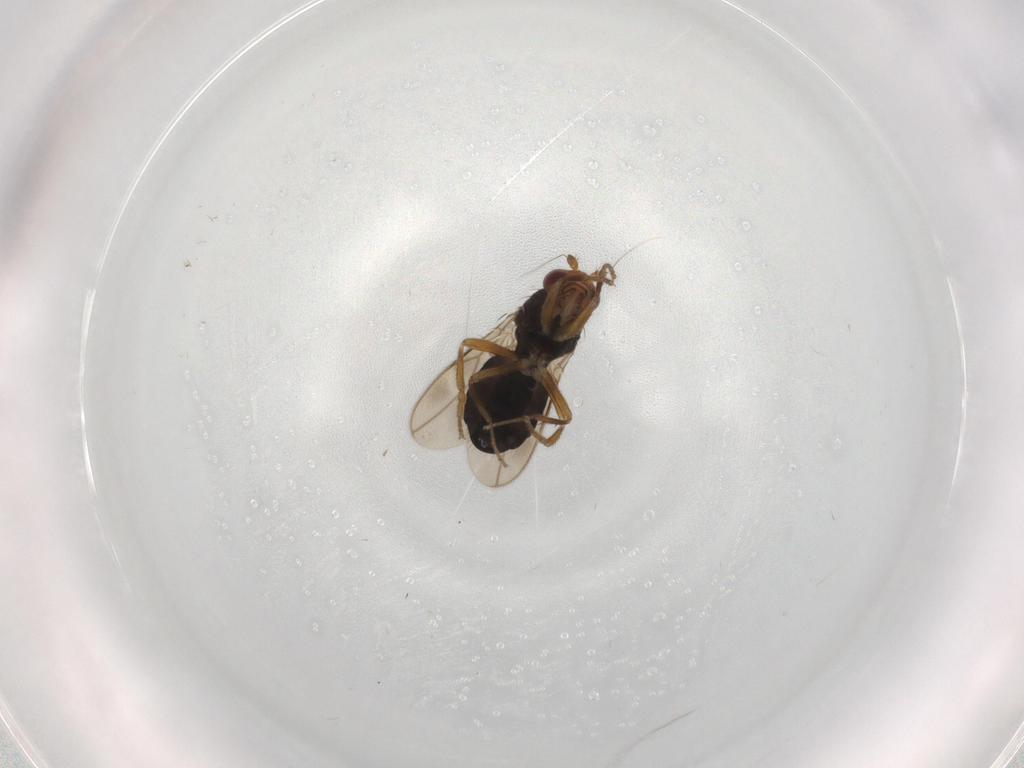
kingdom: Animalia
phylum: Arthropoda
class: Insecta
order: Diptera
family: Sphaeroceridae
